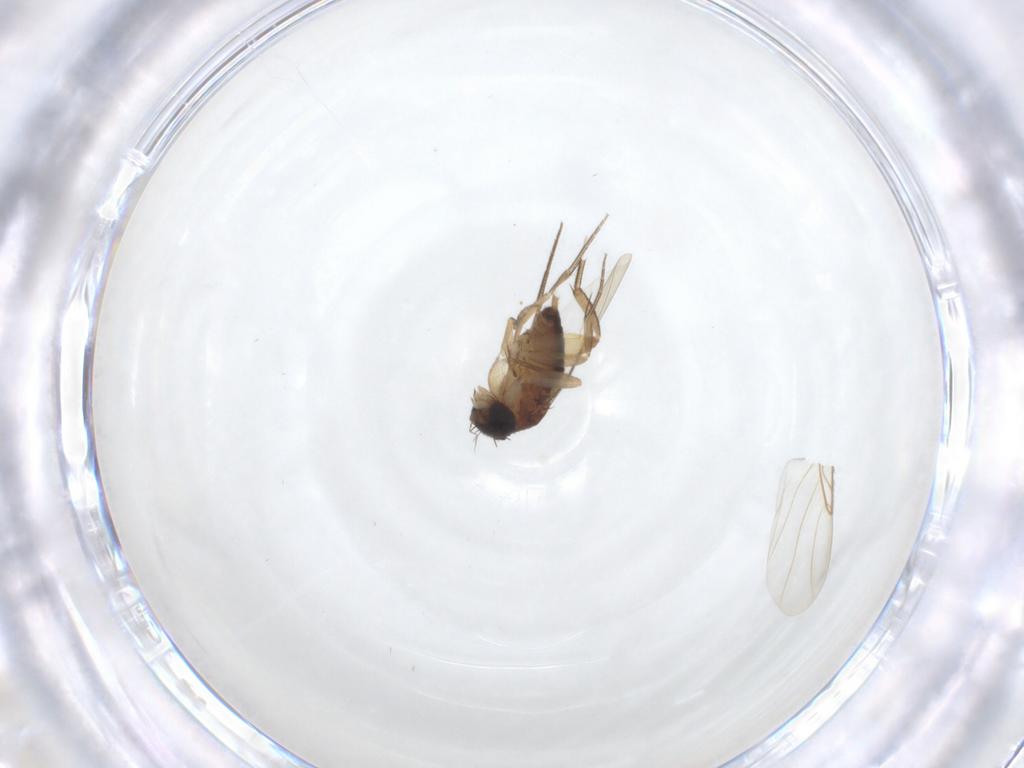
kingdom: Animalia
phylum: Arthropoda
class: Insecta
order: Diptera
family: Phoridae
